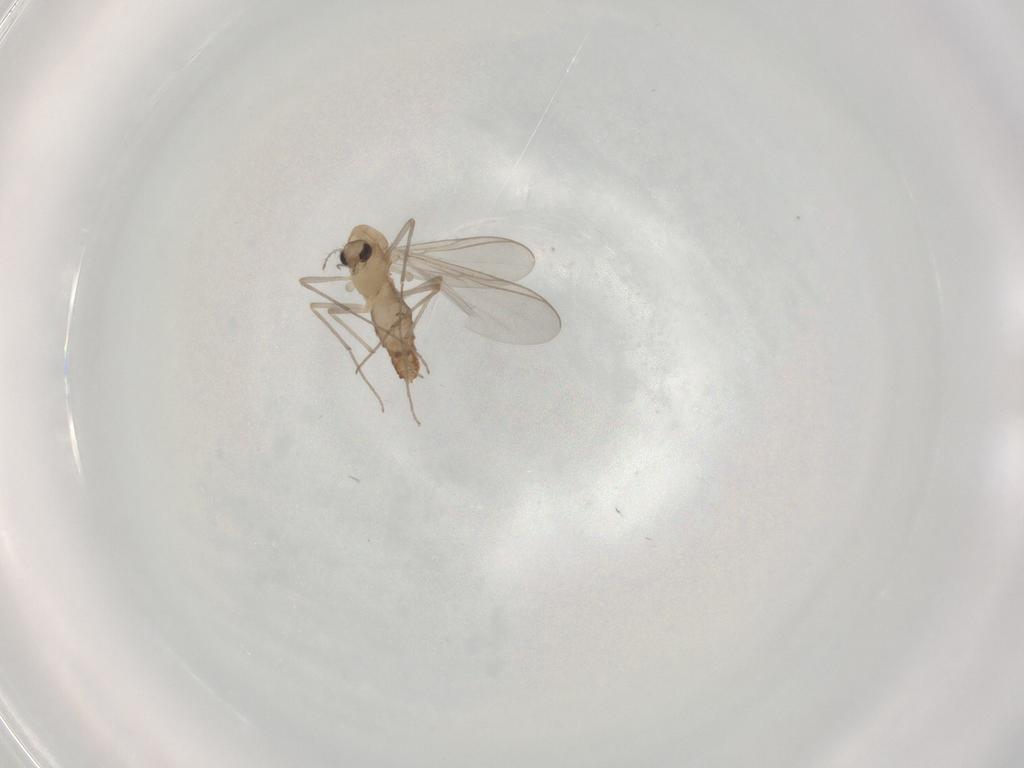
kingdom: Animalia
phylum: Arthropoda
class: Insecta
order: Diptera
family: Chironomidae
